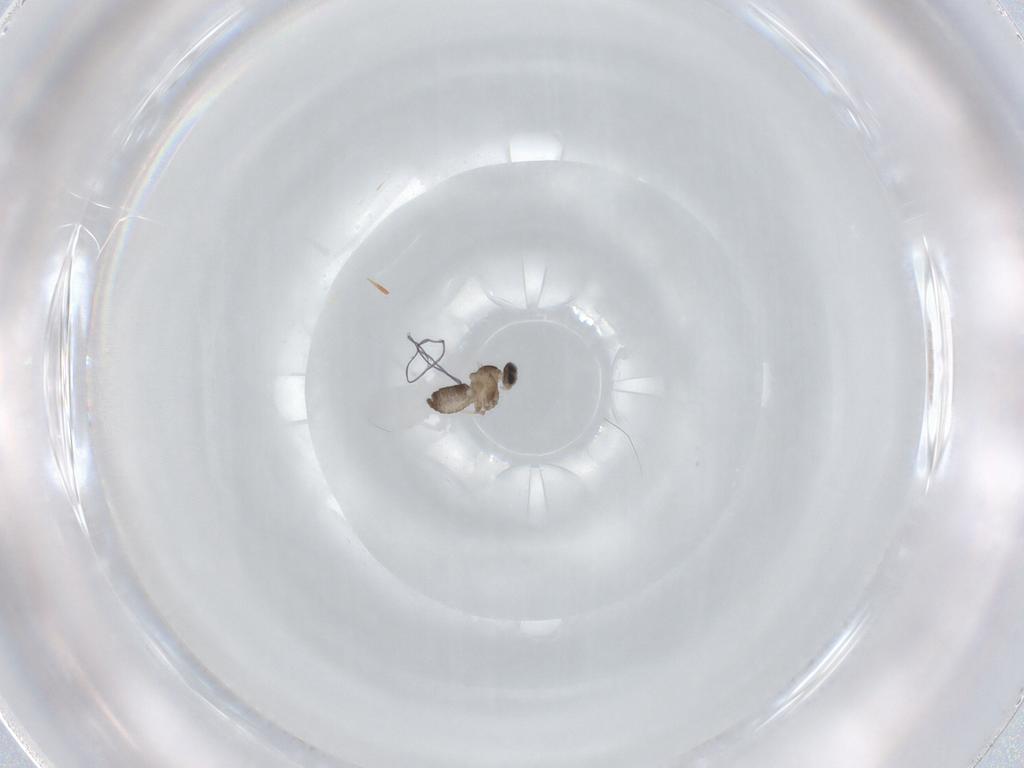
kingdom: Animalia
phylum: Arthropoda
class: Insecta
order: Diptera
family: Cecidomyiidae
